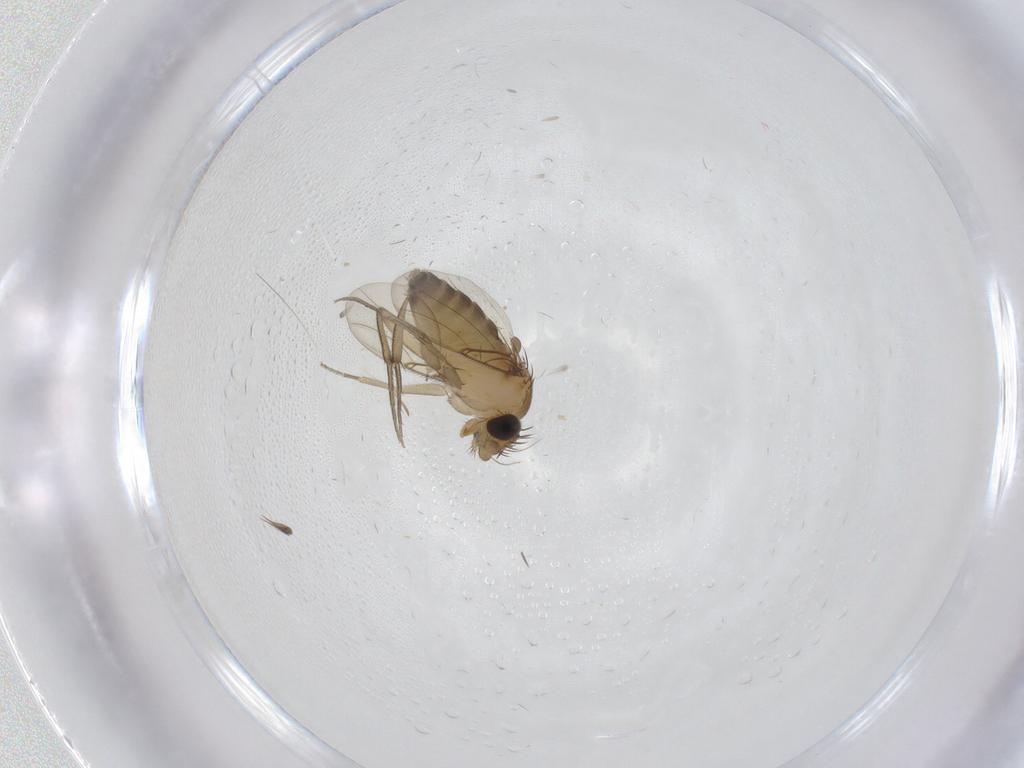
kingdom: Animalia
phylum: Arthropoda
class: Insecta
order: Diptera
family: Phoridae
